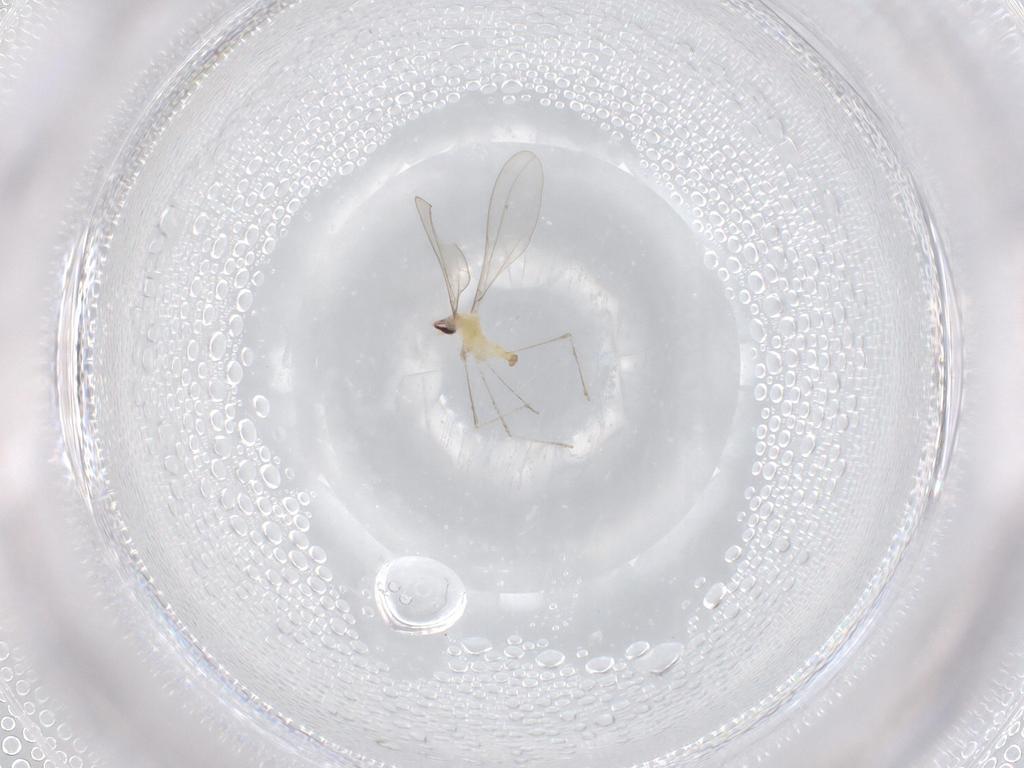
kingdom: Animalia
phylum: Arthropoda
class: Insecta
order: Diptera
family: Cecidomyiidae
